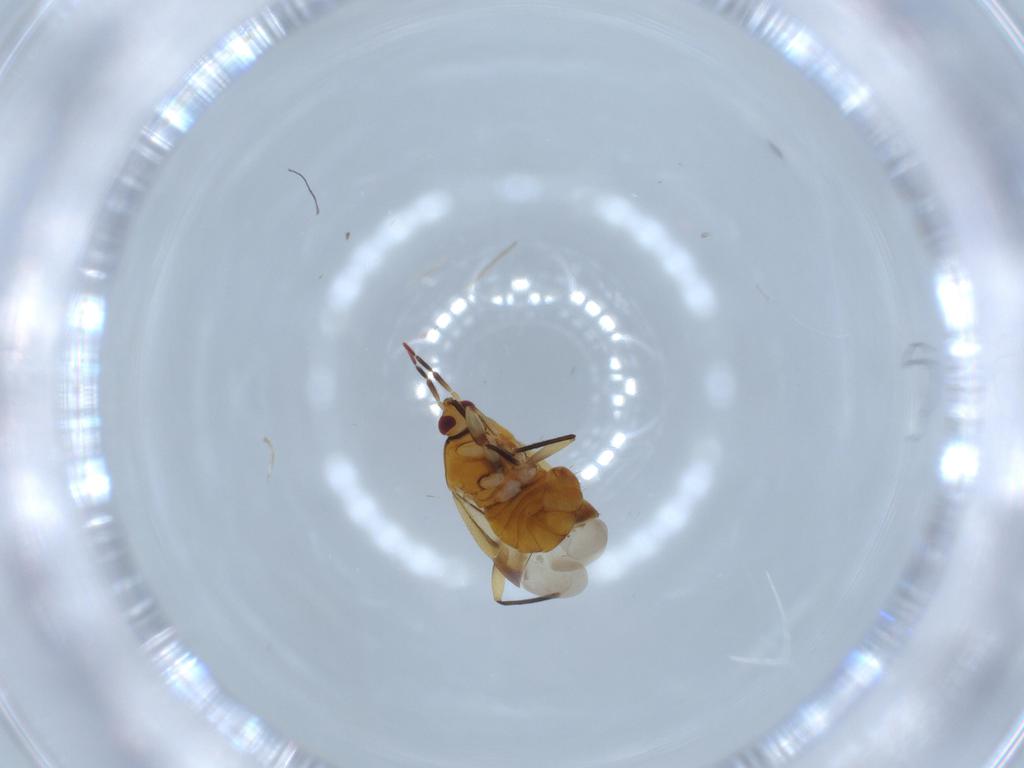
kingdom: Animalia
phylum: Arthropoda
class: Insecta
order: Hemiptera
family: Anthocoridae
